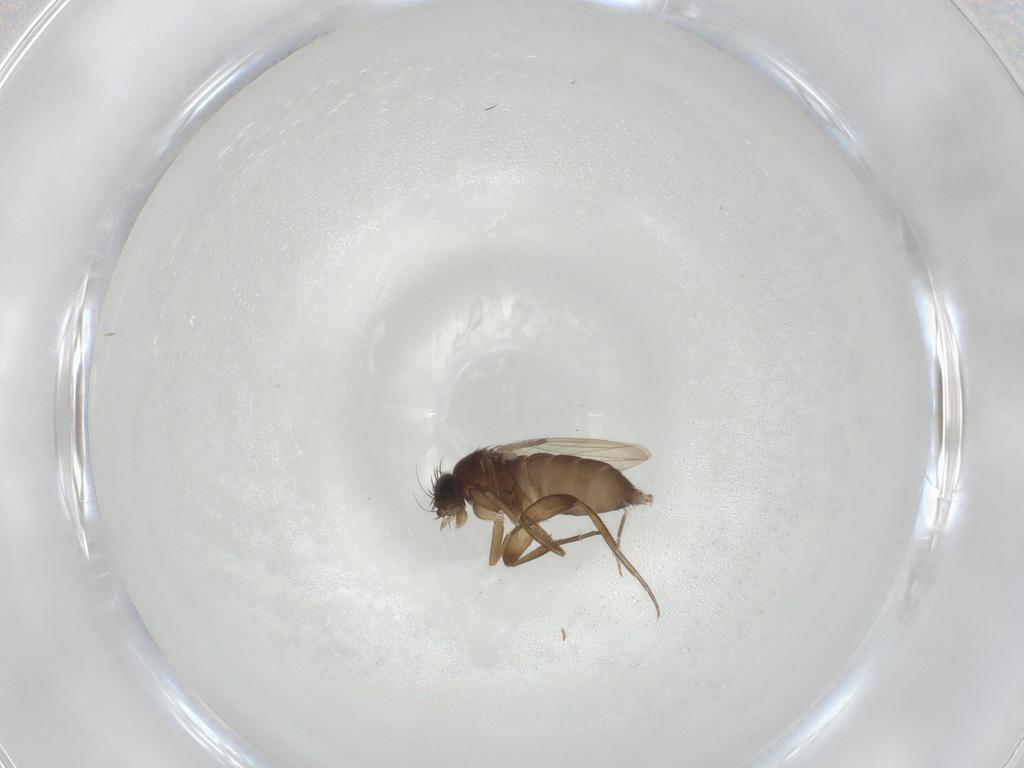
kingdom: Animalia
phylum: Arthropoda
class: Insecta
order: Diptera
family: Phoridae
